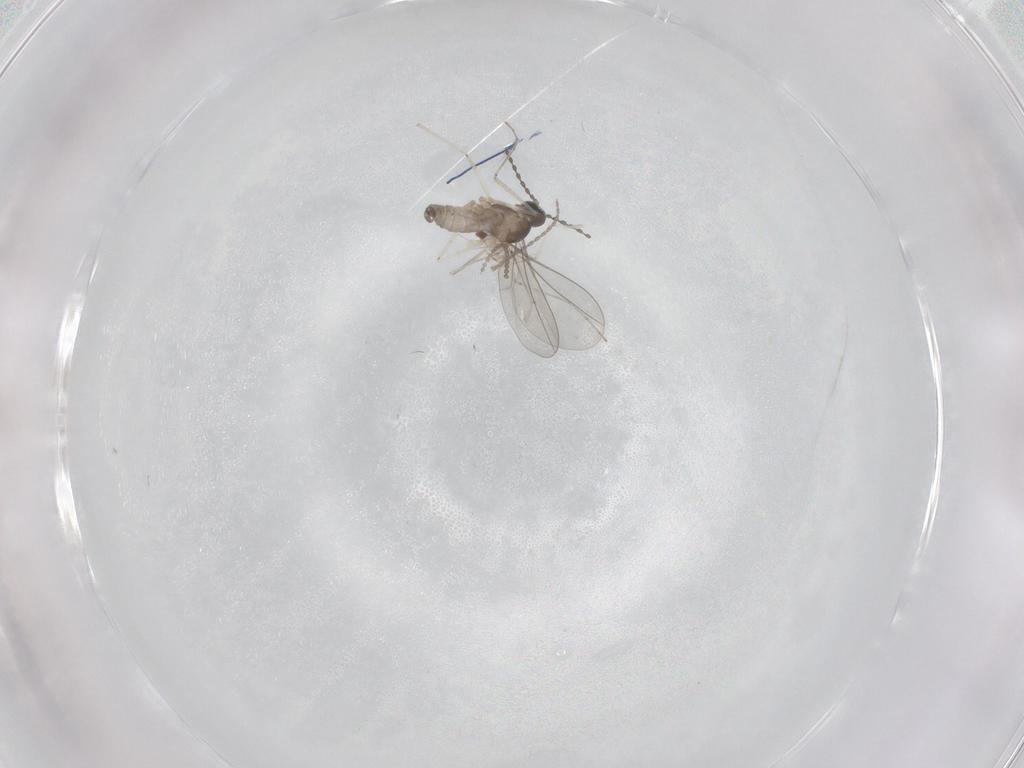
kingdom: Animalia
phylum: Arthropoda
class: Insecta
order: Diptera
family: Cecidomyiidae
